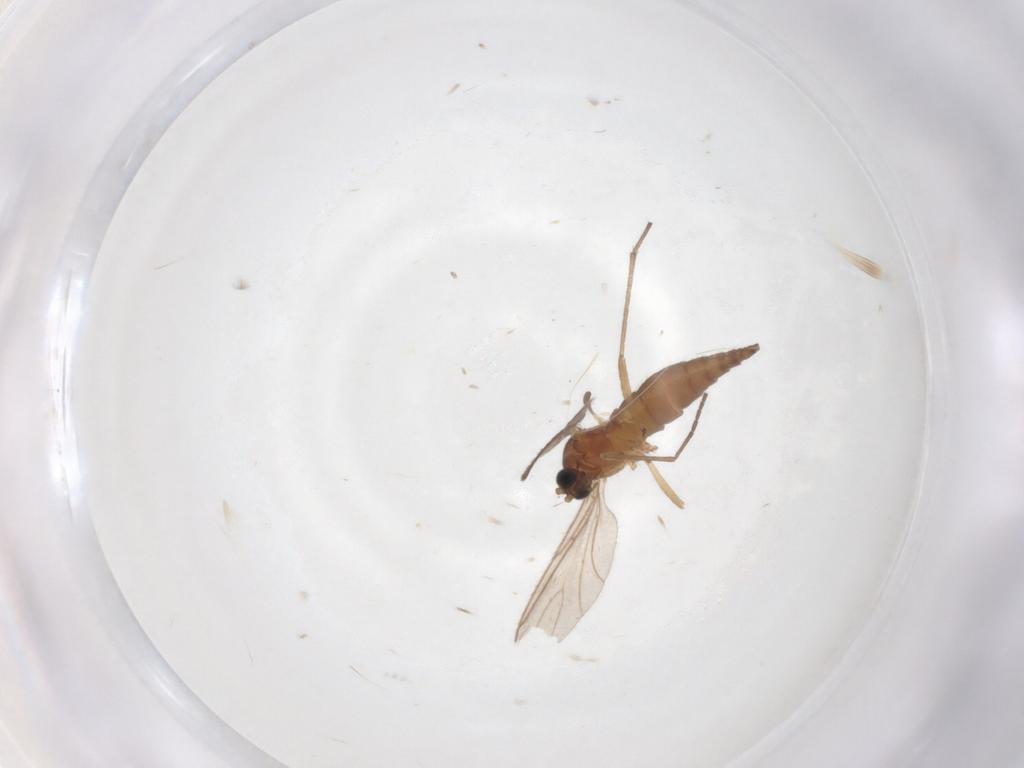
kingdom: Animalia
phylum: Arthropoda
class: Insecta
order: Diptera
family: Sciaridae
